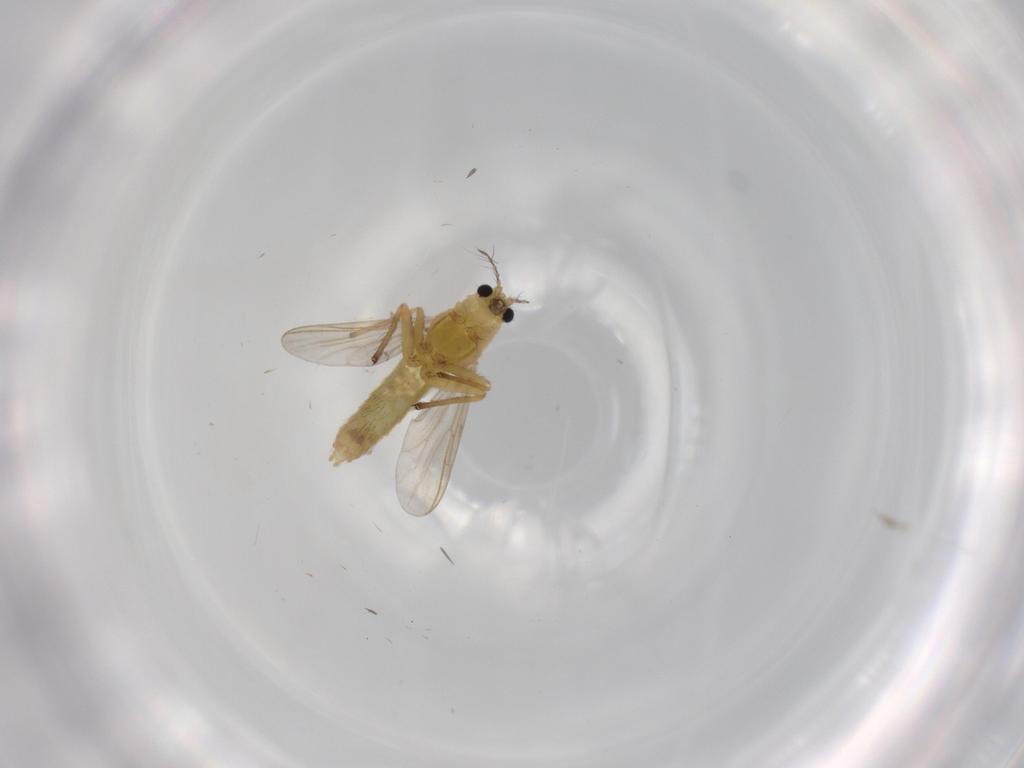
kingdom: Animalia
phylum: Arthropoda
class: Insecta
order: Diptera
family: Chironomidae
